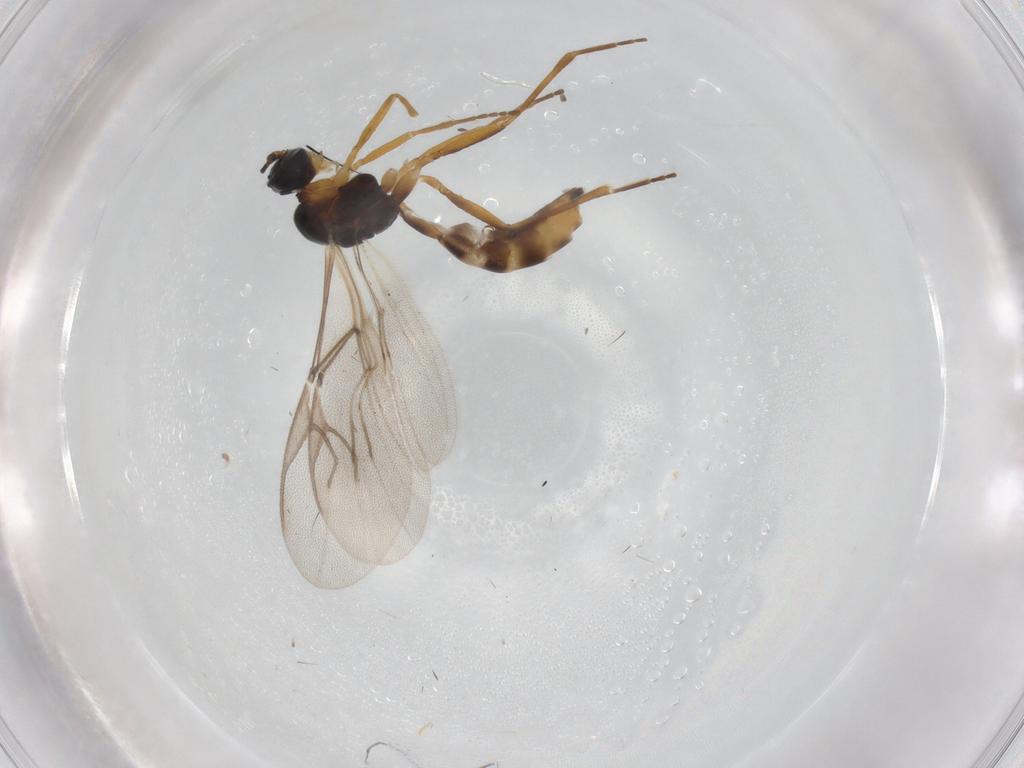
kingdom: Animalia
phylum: Arthropoda
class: Insecta
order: Hymenoptera
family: Braconidae
